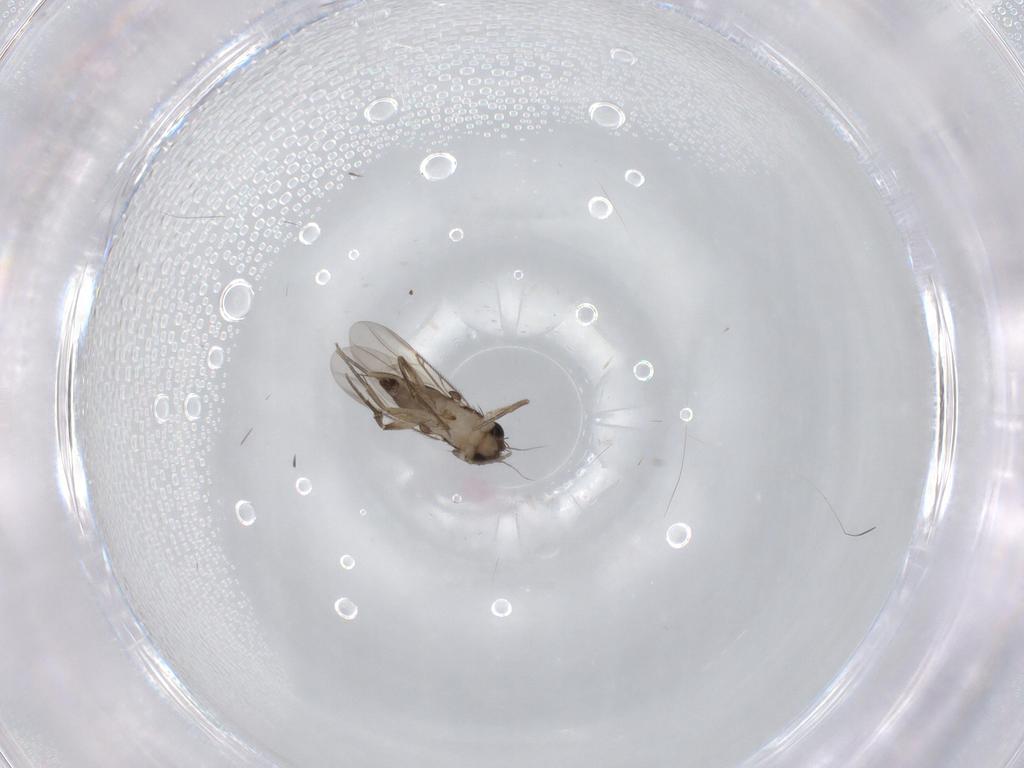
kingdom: Animalia
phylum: Arthropoda
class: Insecta
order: Diptera
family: Phoridae
